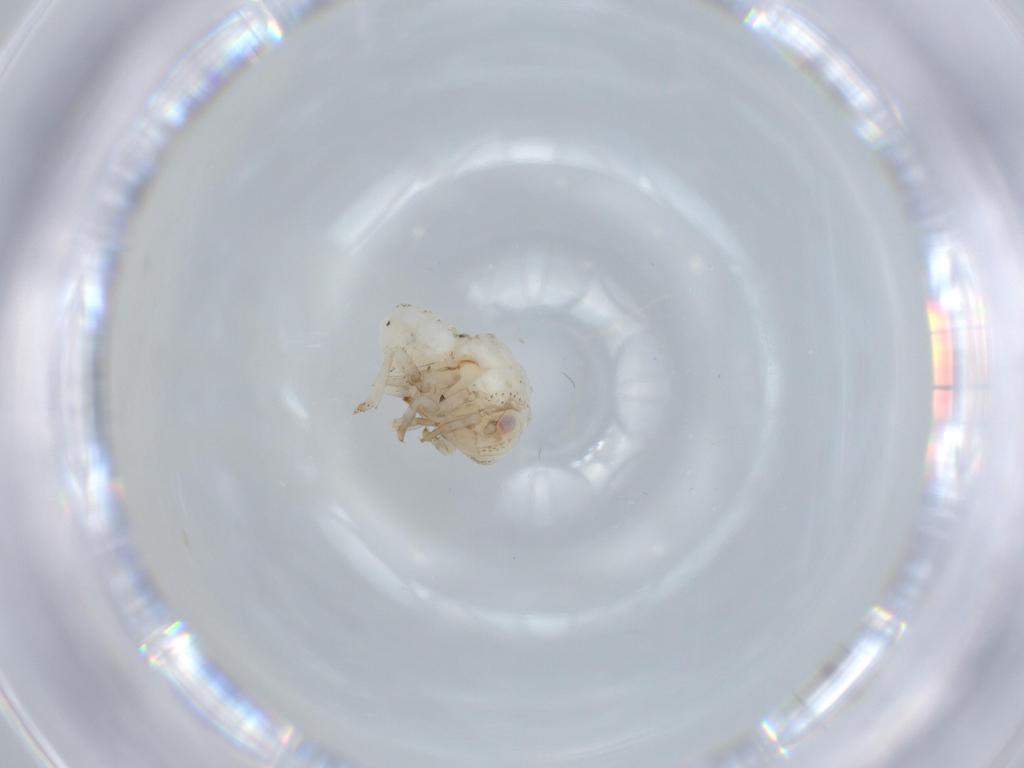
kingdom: Animalia
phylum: Arthropoda
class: Insecta
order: Hemiptera
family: Acanaloniidae
